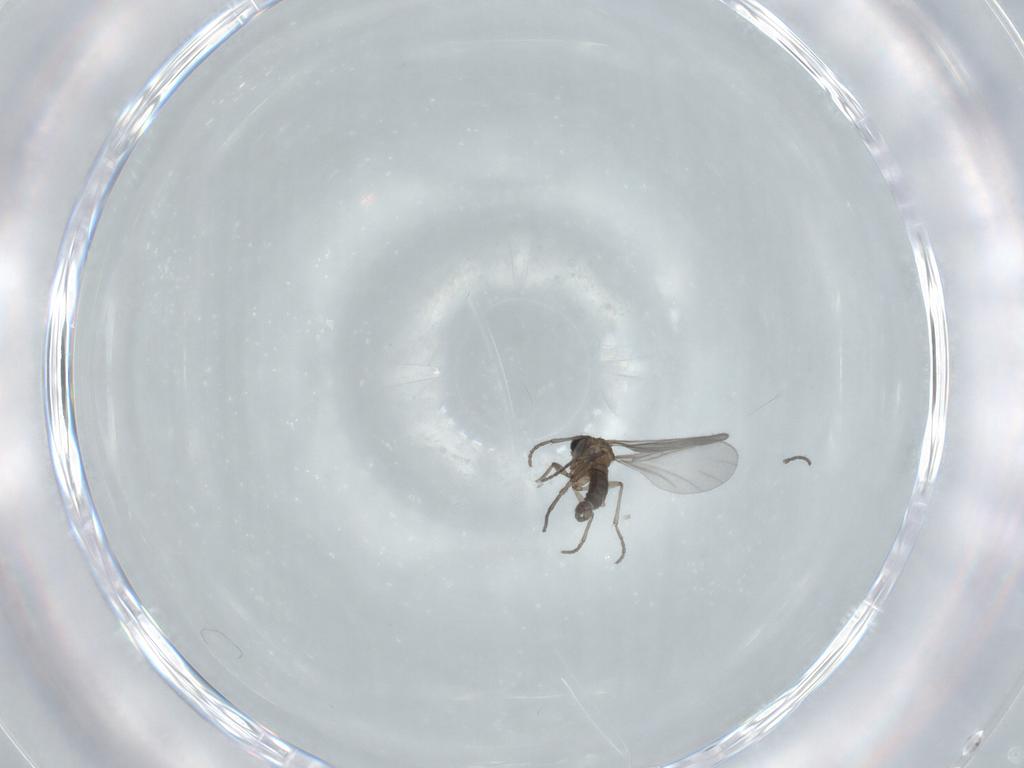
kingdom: Animalia
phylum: Arthropoda
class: Insecta
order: Diptera
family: Sciaridae
